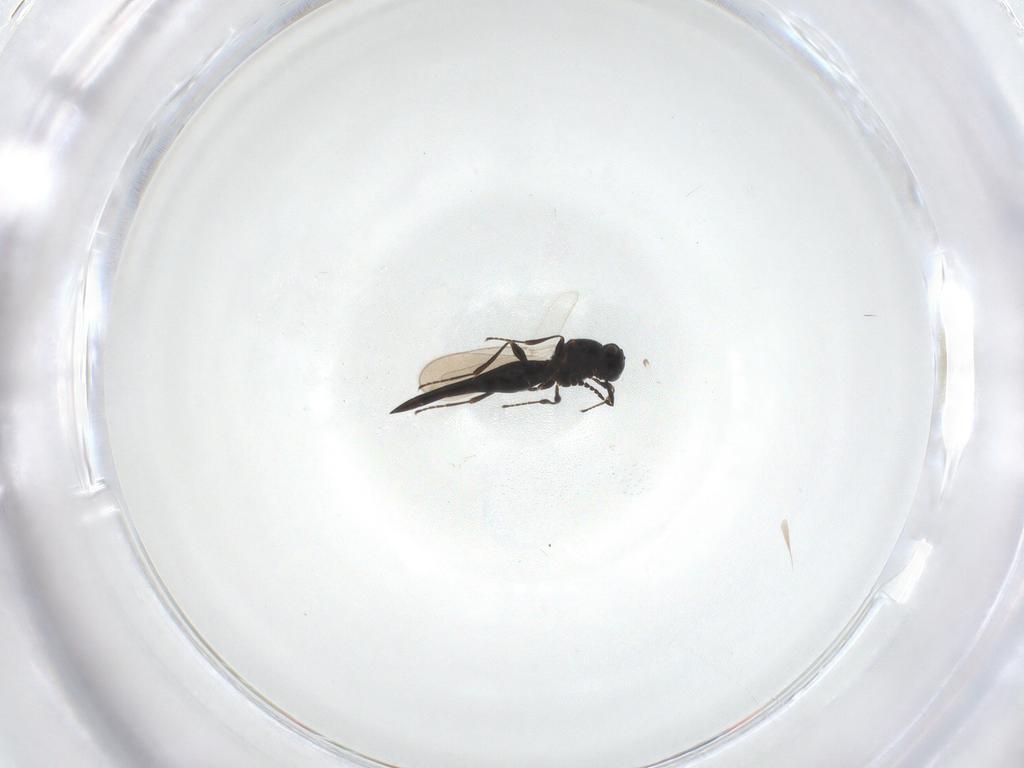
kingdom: Animalia
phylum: Arthropoda
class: Insecta
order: Hymenoptera
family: Platygastridae
